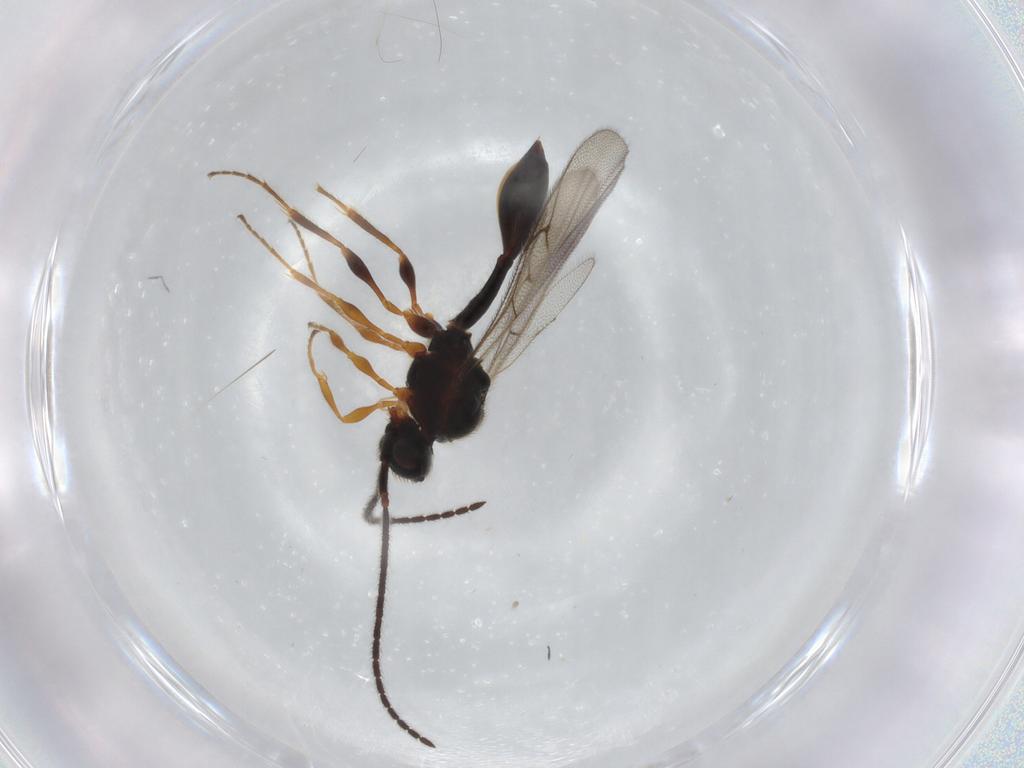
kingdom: Animalia
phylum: Arthropoda
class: Insecta
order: Hymenoptera
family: Diapriidae
